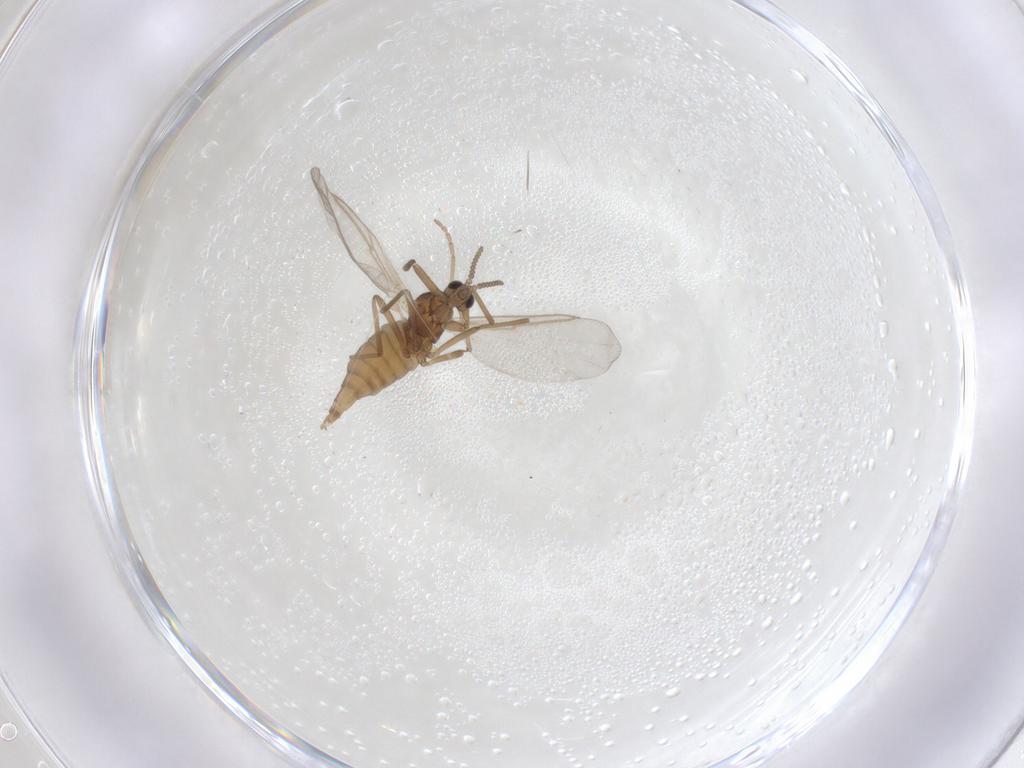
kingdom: Animalia
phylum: Arthropoda
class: Insecta
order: Diptera
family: Cecidomyiidae
